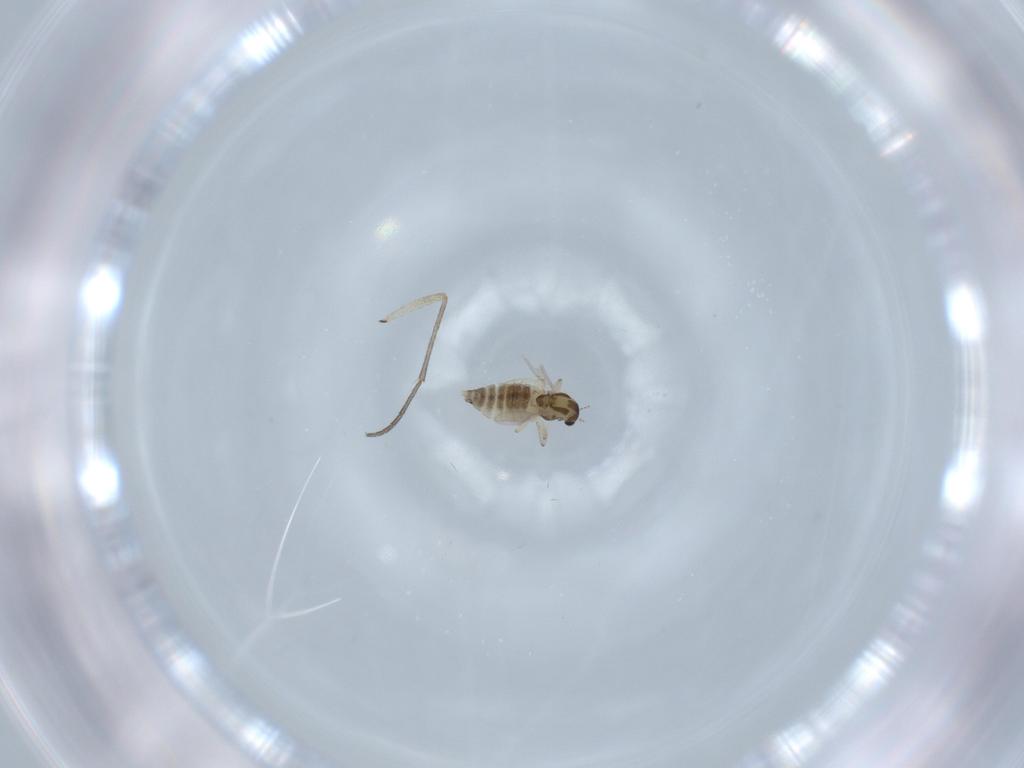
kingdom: Animalia
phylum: Arthropoda
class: Insecta
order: Diptera
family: Chironomidae
